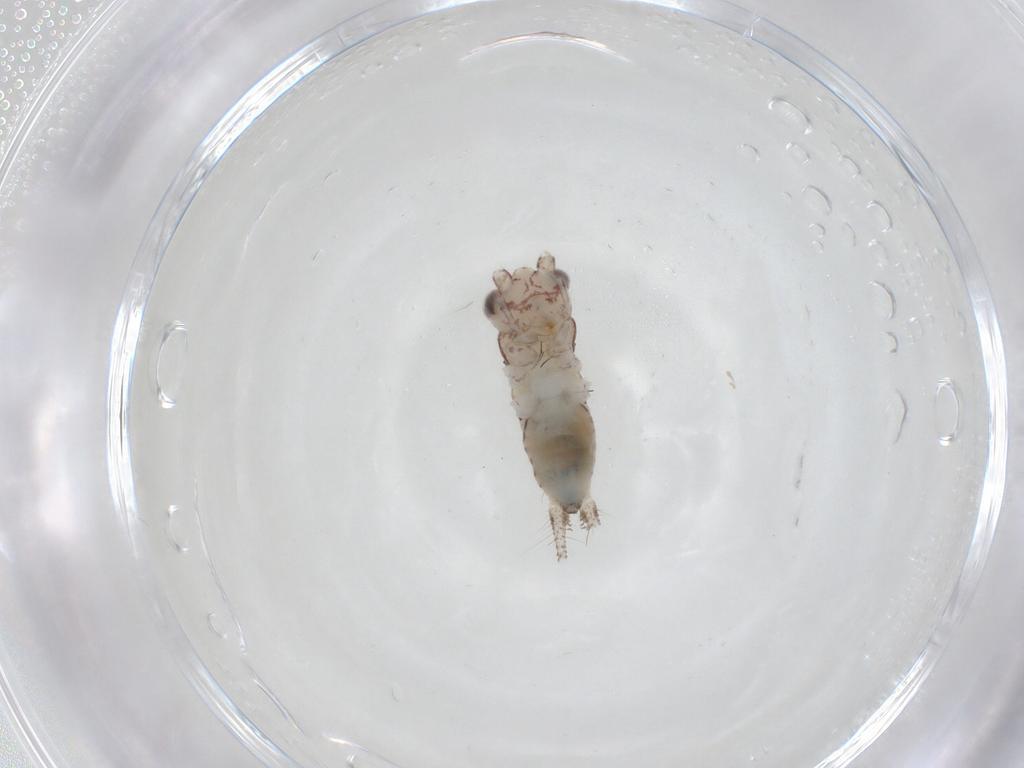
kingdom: Animalia
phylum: Arthropoda
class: Insecta
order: Orthoptera
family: Trigonidiidae
